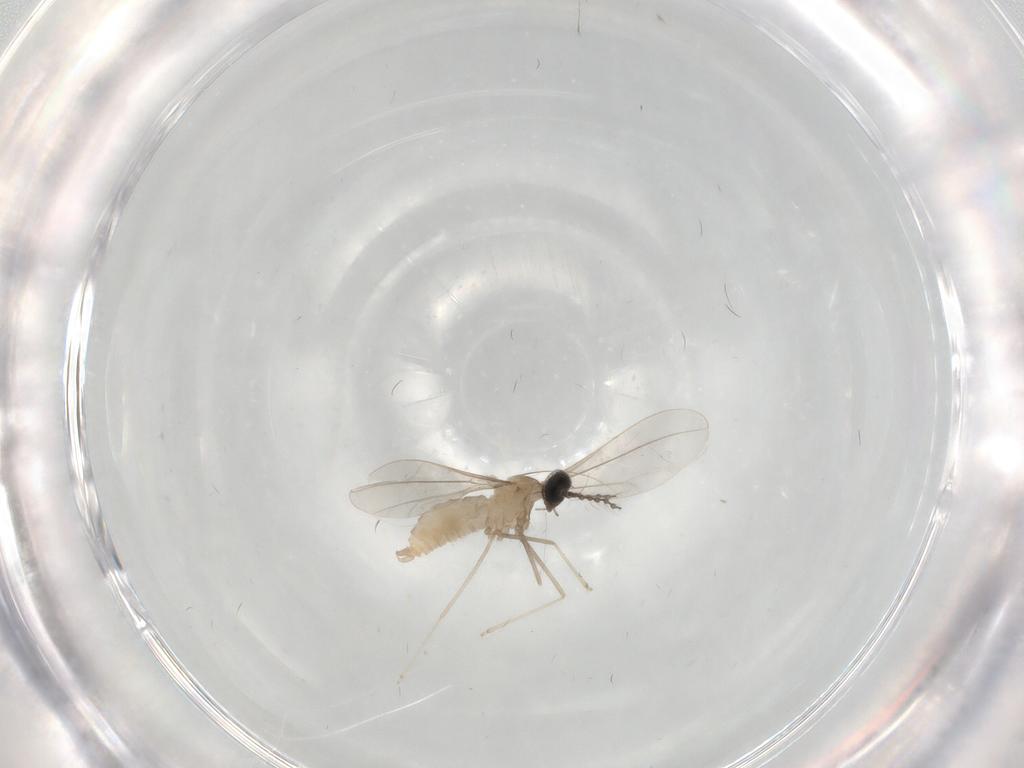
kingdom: Animalia
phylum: Arthropoda
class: Insecta
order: Diptera
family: Cecidomyiidae
